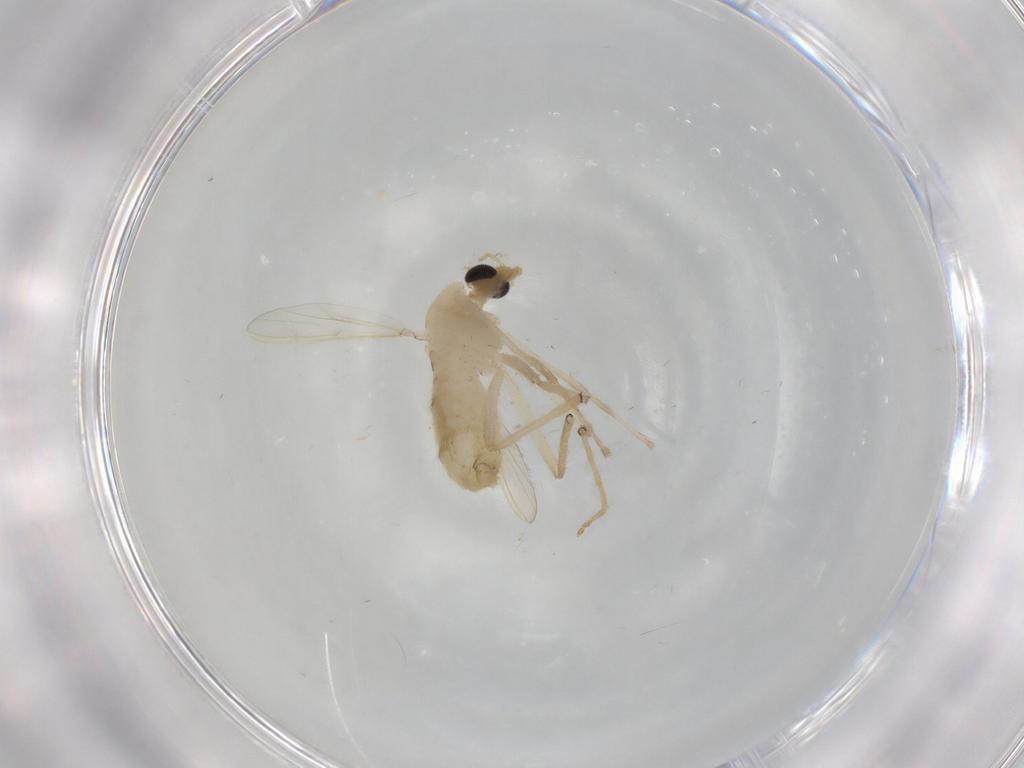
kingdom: Animalia
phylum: Arthropoda
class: Insecta
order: Diptera
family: Chironomidae
